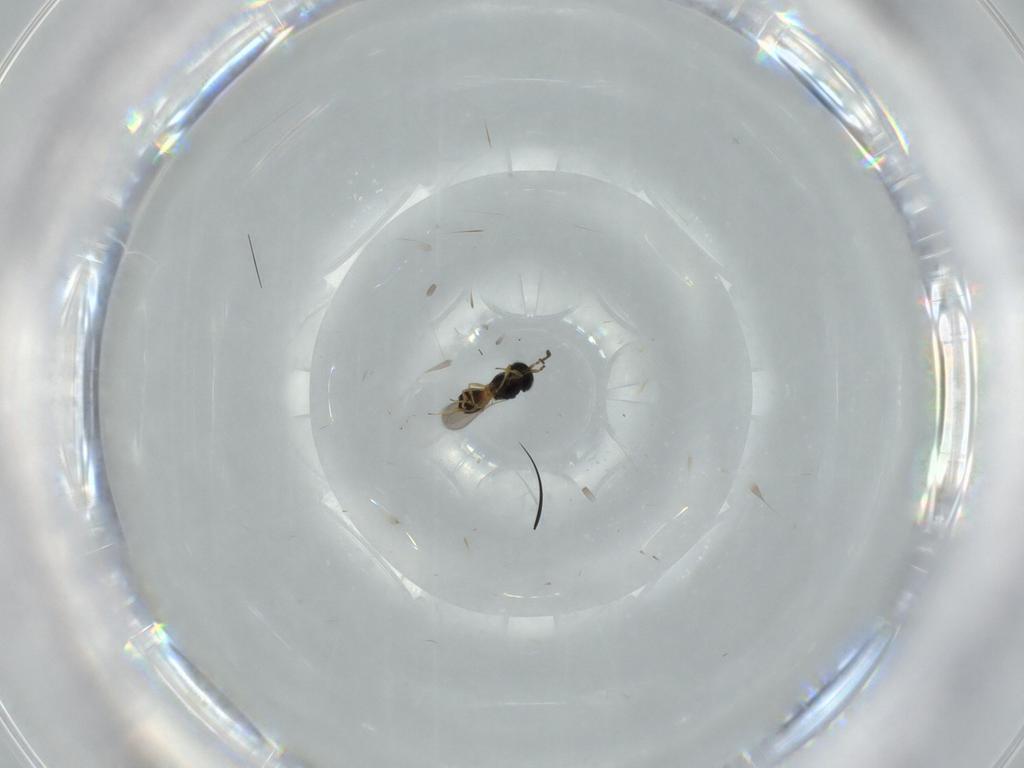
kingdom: Animalia
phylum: Arthropoda
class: Insecta
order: Hymenoptera
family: Scelionidae
